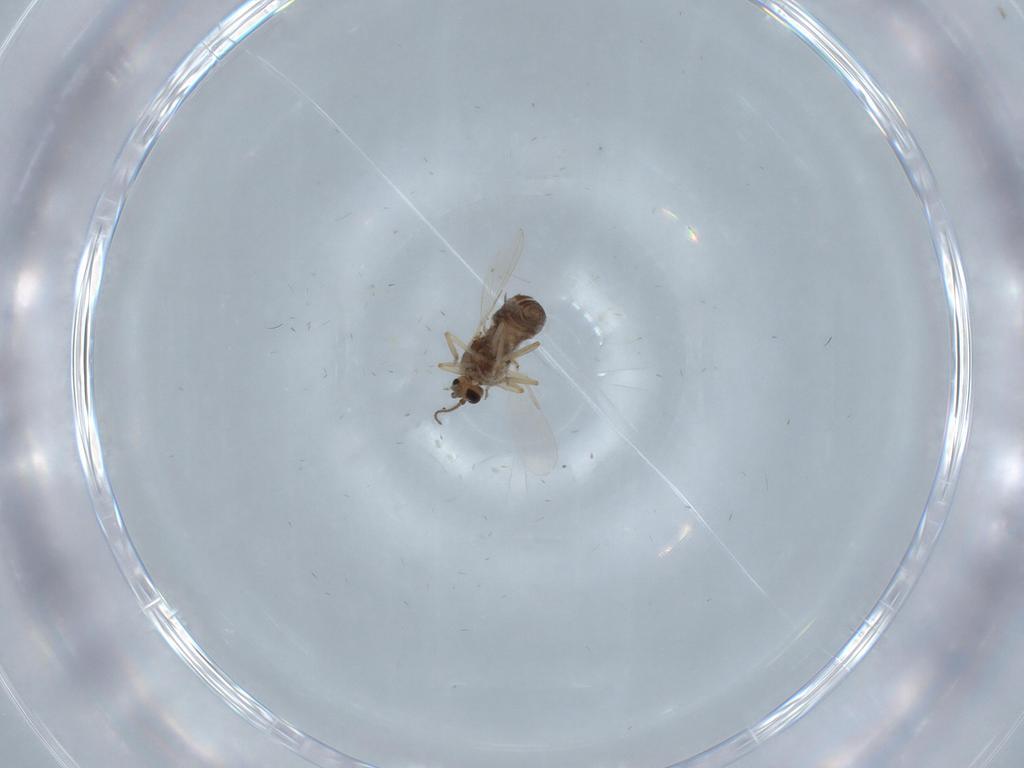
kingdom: Animalia
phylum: Arthropoda
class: Insecta
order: Diptera
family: Ceratopogonidae
